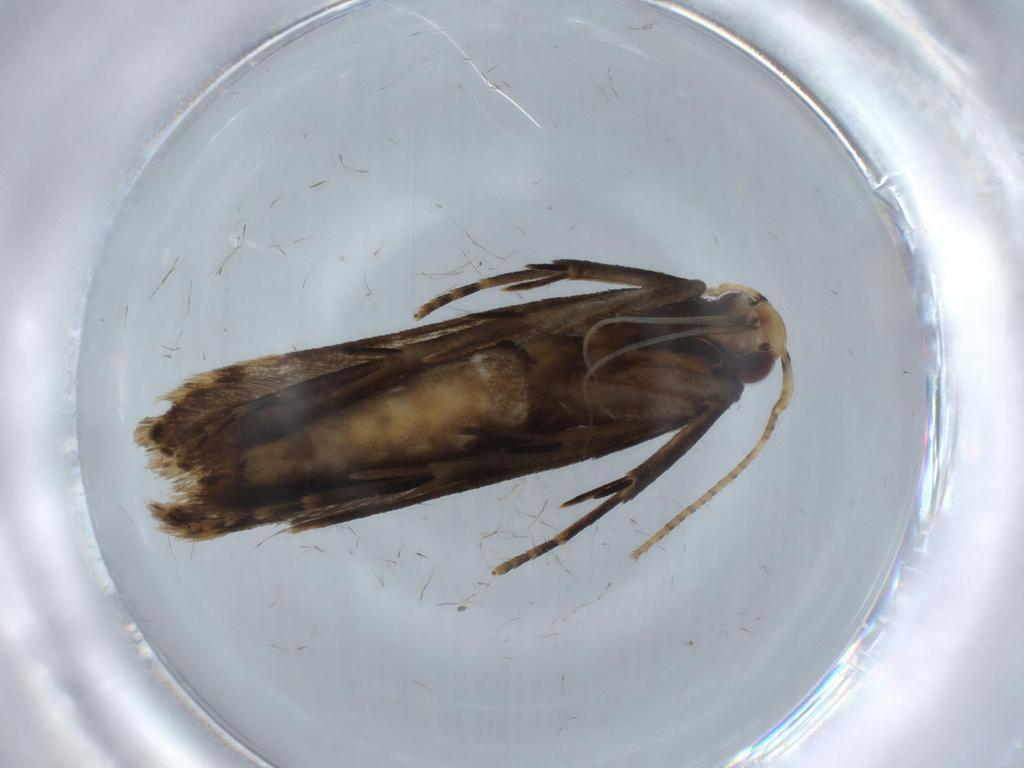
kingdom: Animalia
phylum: Arthropoda
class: Insecta
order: Lepidoptera
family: Gelechiidae
